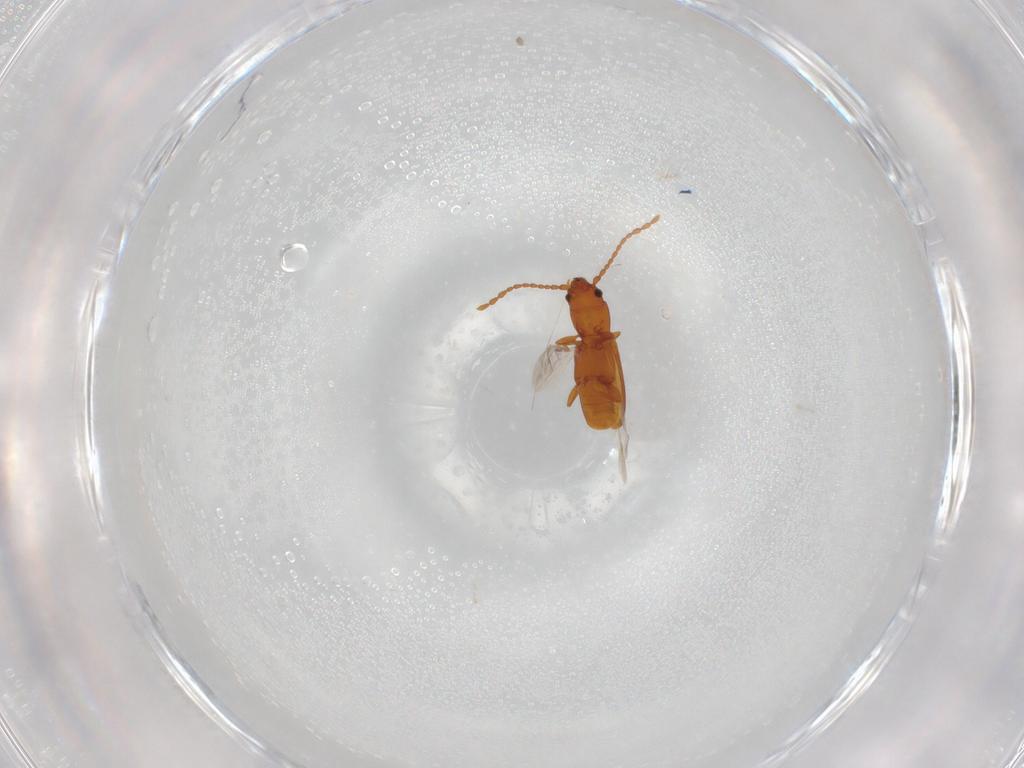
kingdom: Animalia
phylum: Arthropoda
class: Insecta
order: Coleoptera
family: Laemophloeidae
